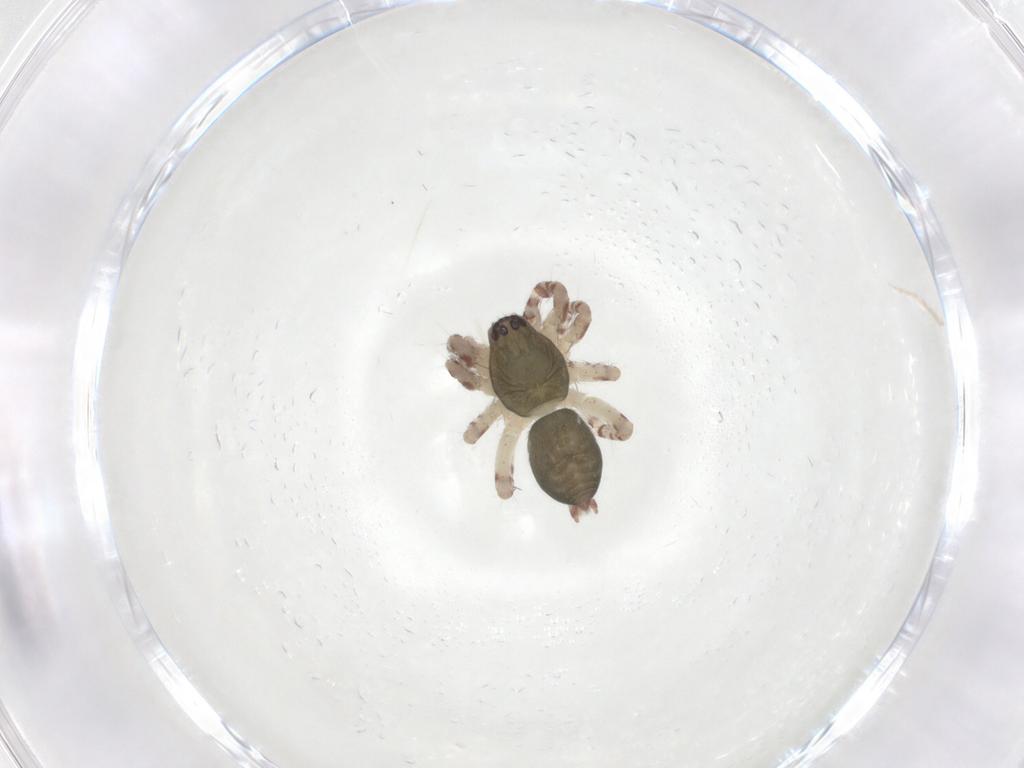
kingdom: Animalia
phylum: Arthropoda
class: Arachnida
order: Araneae
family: Anyphaenidae
